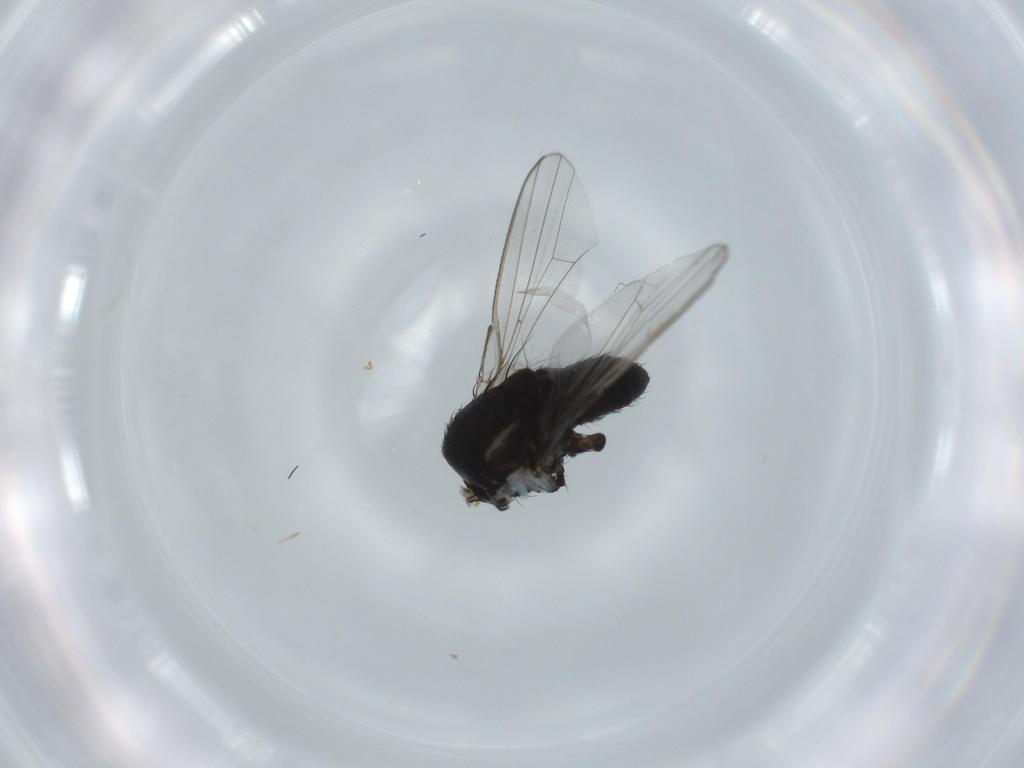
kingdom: Animalia
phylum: Arthropoda
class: Insecta
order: Diptera
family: Milichiidae
